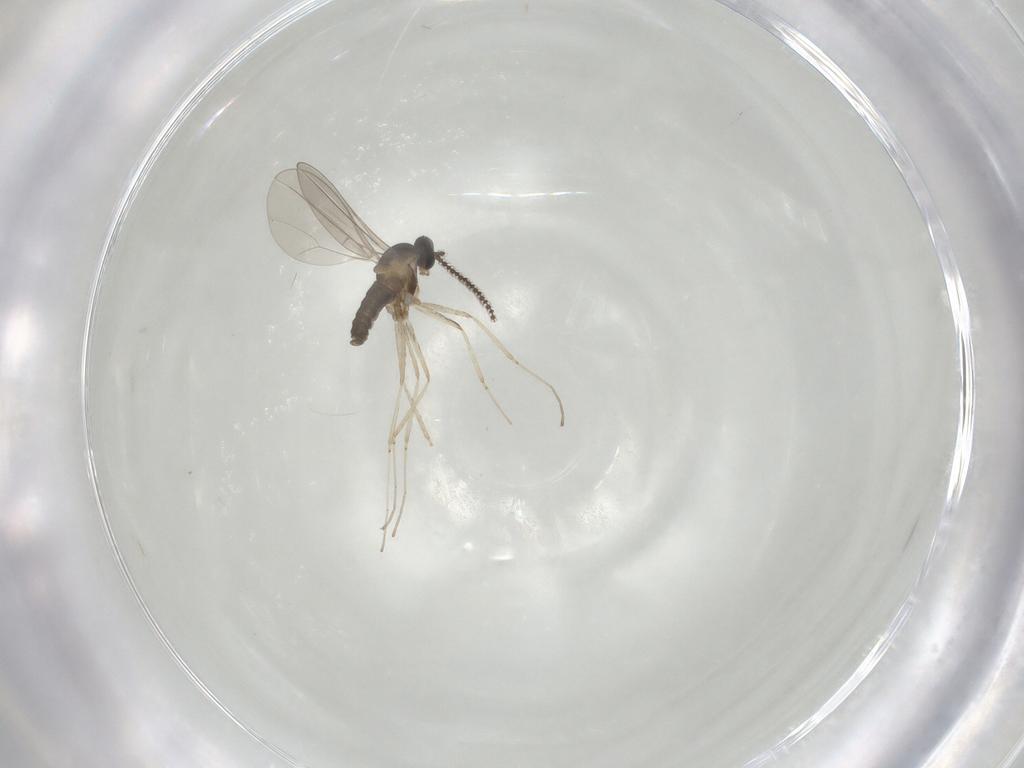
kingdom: Animalia
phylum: Arthropoda
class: Insecta
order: Diptera
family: Cecidomyiidae
